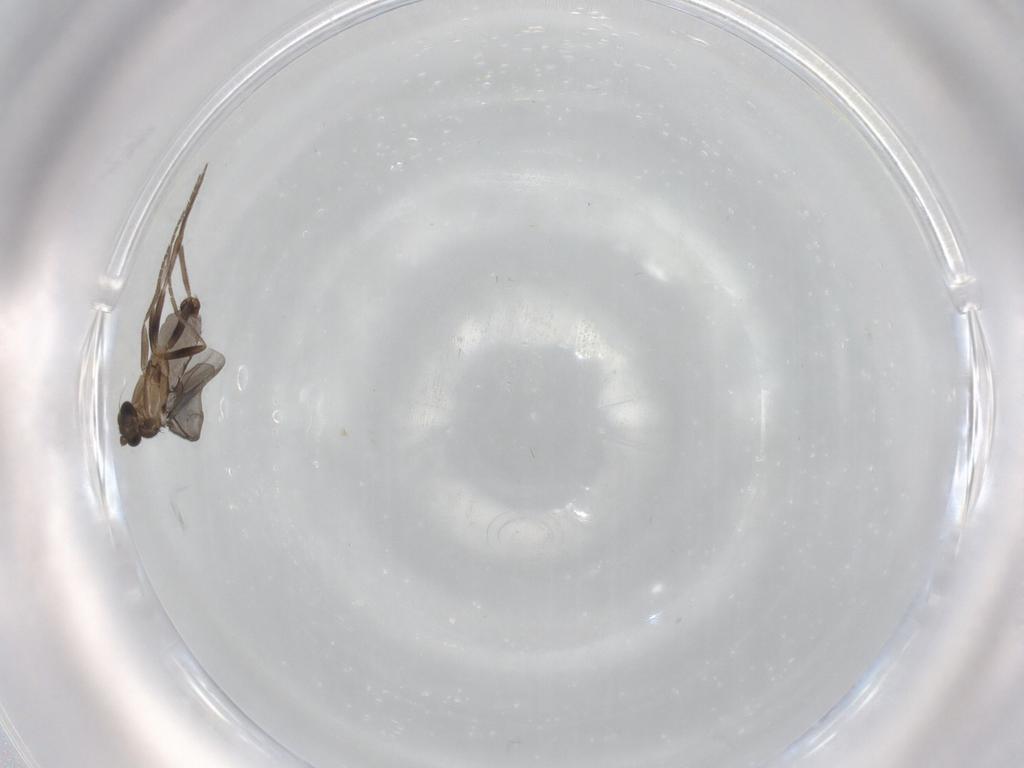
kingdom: Animalia
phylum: Arthropoda
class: Insecta
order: Diptera
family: Phoridae
